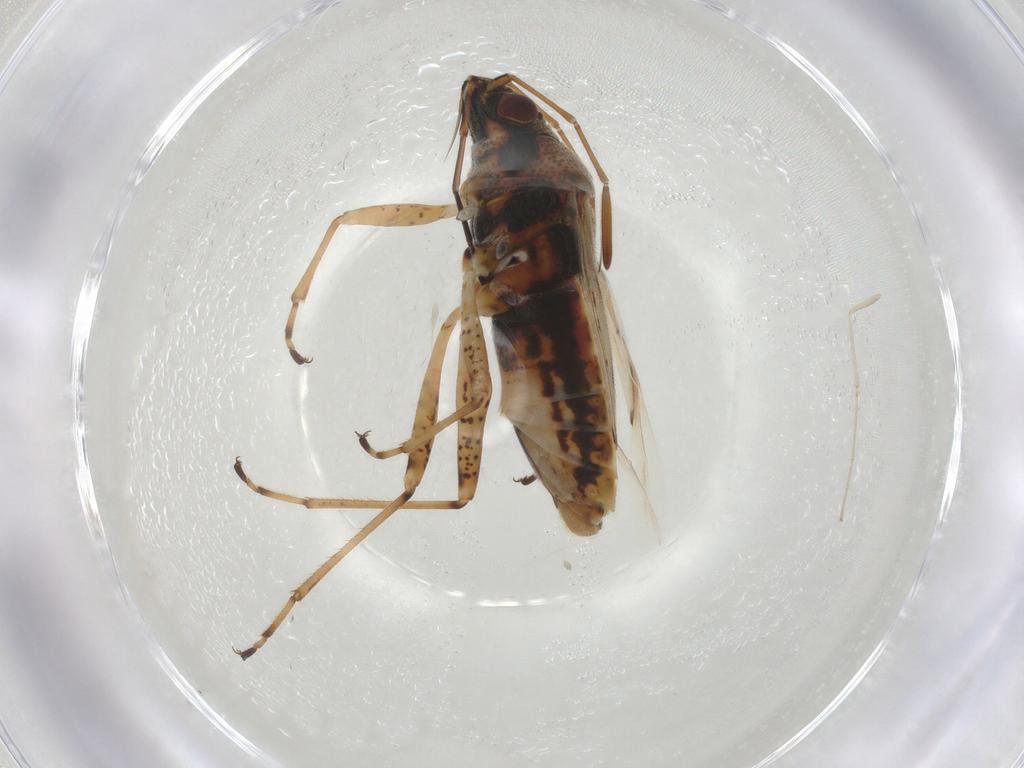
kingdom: Animalia
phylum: Arthropoda
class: Insecta
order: Diptera
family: Cecidomyiidae
